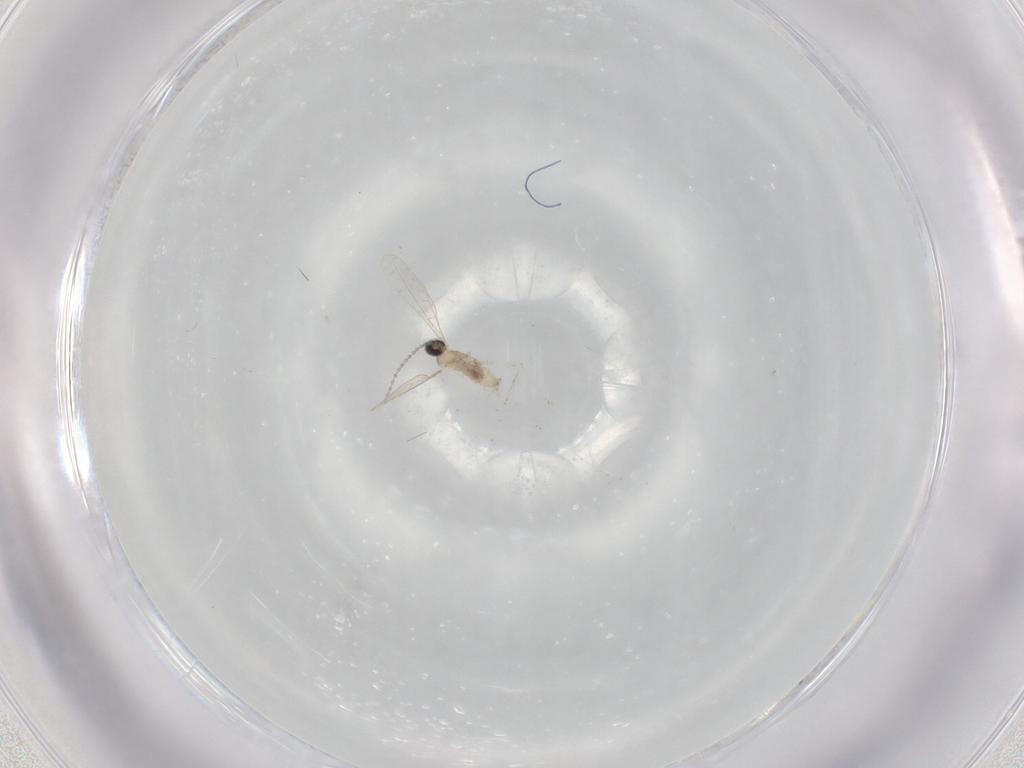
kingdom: Animalia
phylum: Arthropoda
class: Insecta
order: Diptera
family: Cecidomyiidae
